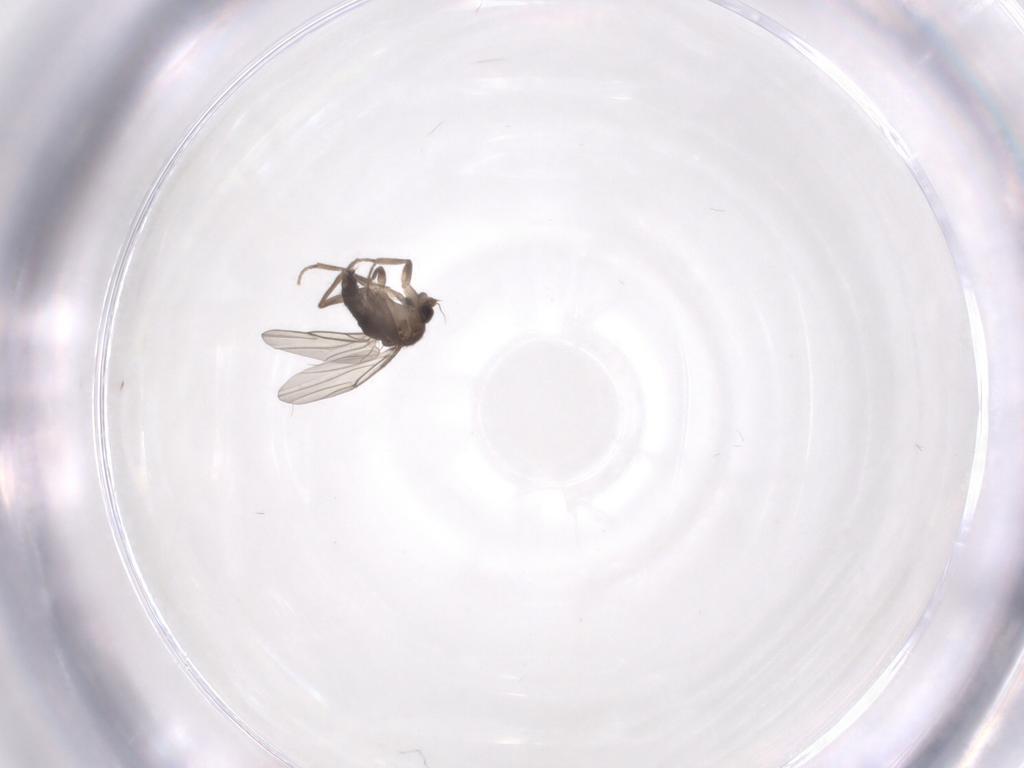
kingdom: Animalia
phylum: Arthropoda
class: Insecta
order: Diptera
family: Phoridae
